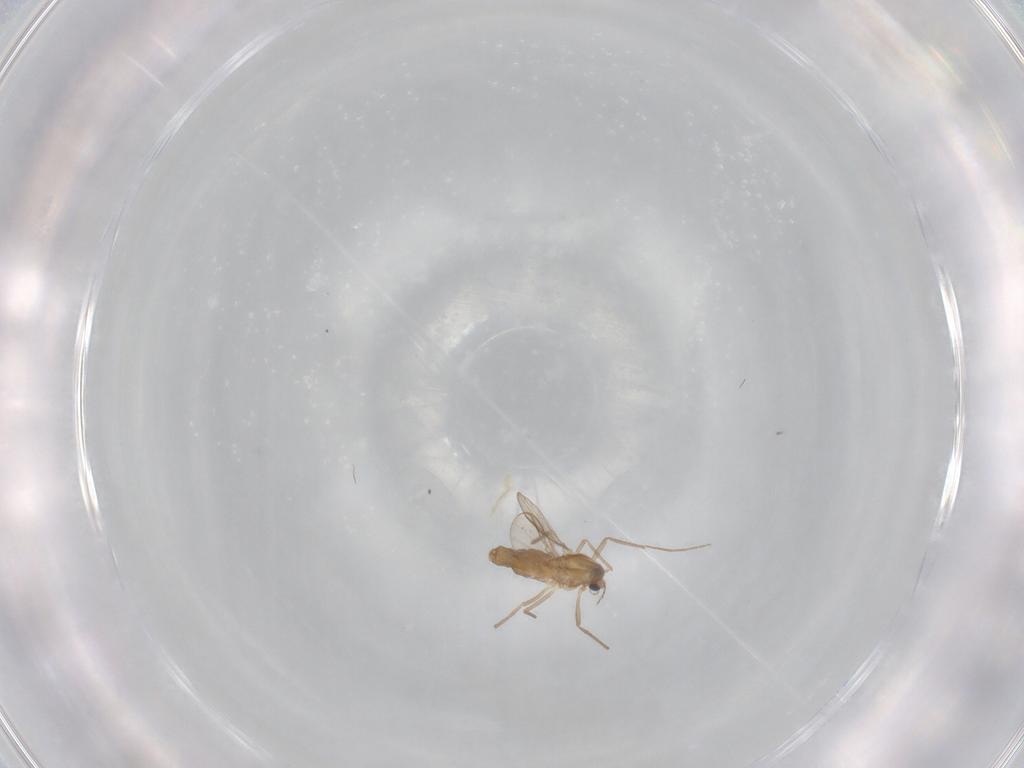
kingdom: Animalia
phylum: Arthropoda
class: Insecta
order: Diptera
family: Chironomidae
